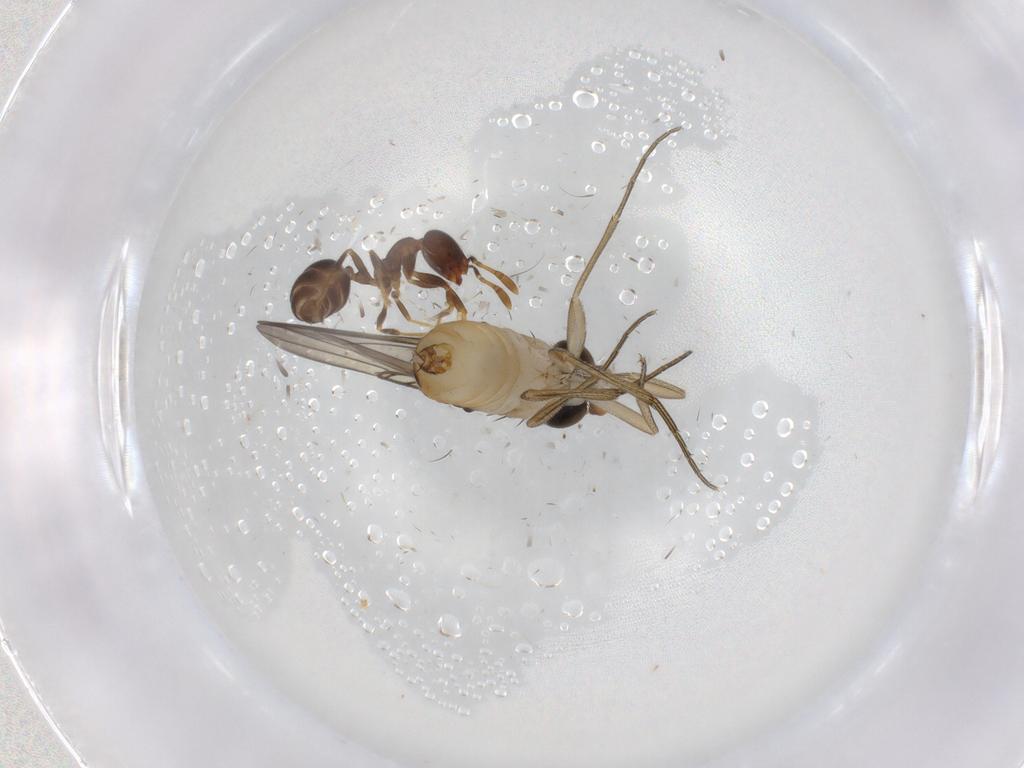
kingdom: Animalia
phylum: Arthropoda
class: Insecta
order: Diptera
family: Phoridae
